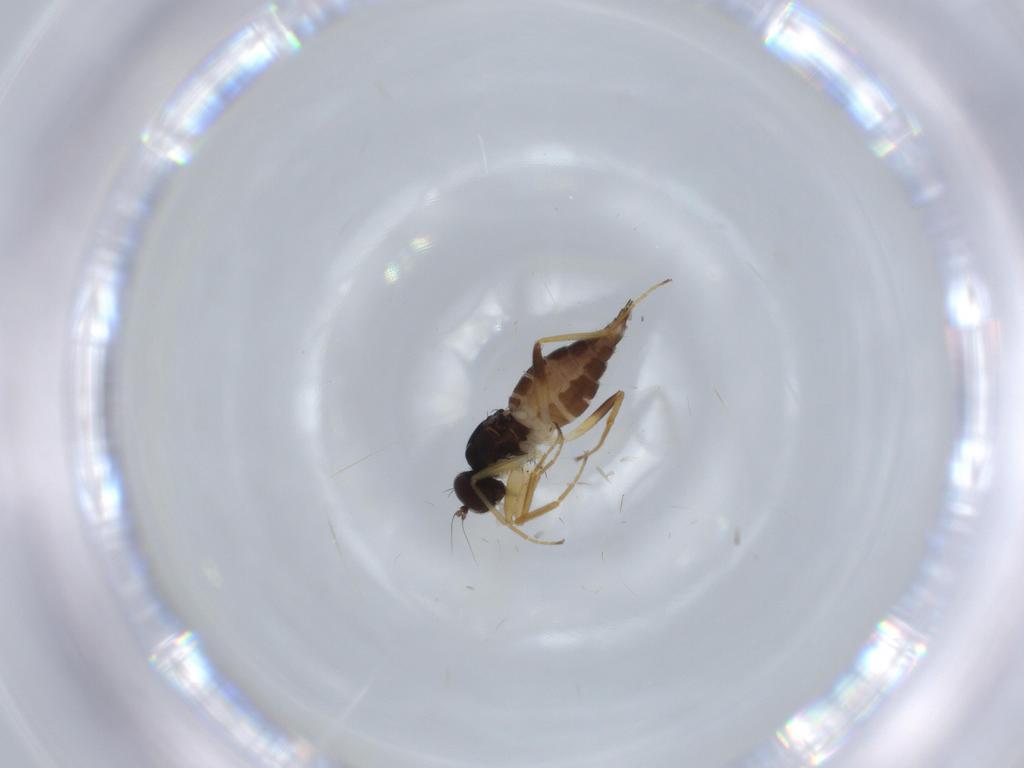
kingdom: Animalia
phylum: Arthropoda
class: Insecta
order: Diptera
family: Hybotidae
